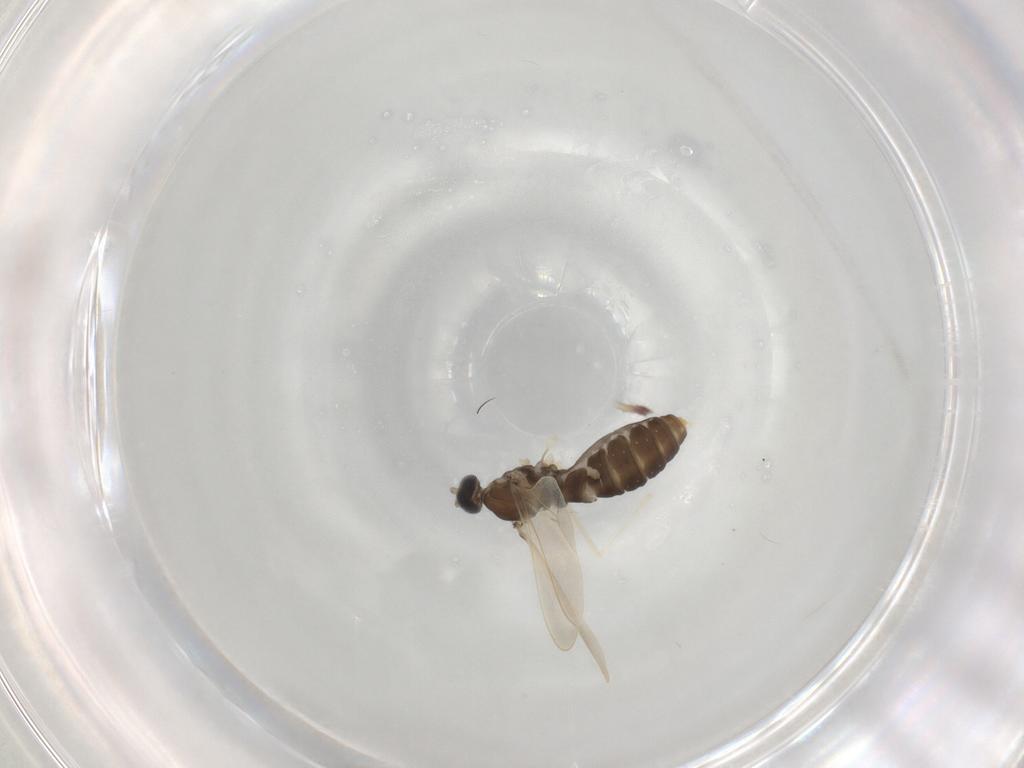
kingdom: Animalia
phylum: Arthropoda
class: Insecta
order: Diptera
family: Cecidomyiidae
